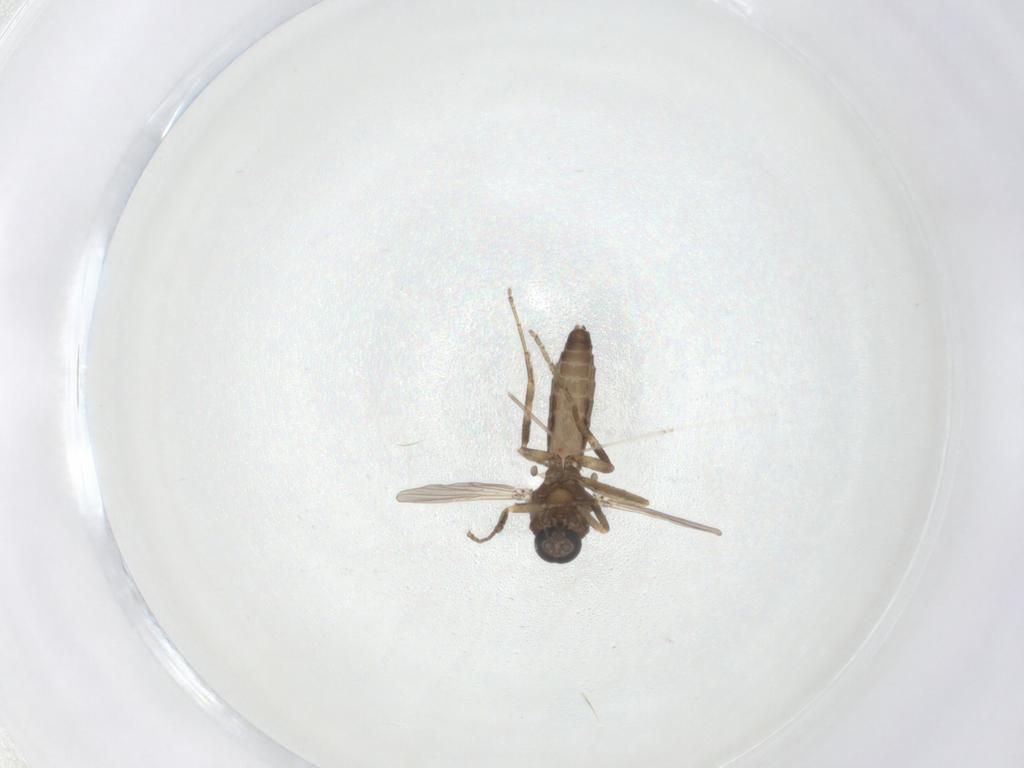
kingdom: Animalia
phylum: Arthropoda
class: Insecta
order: Diptera
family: Ceratopogonidae
